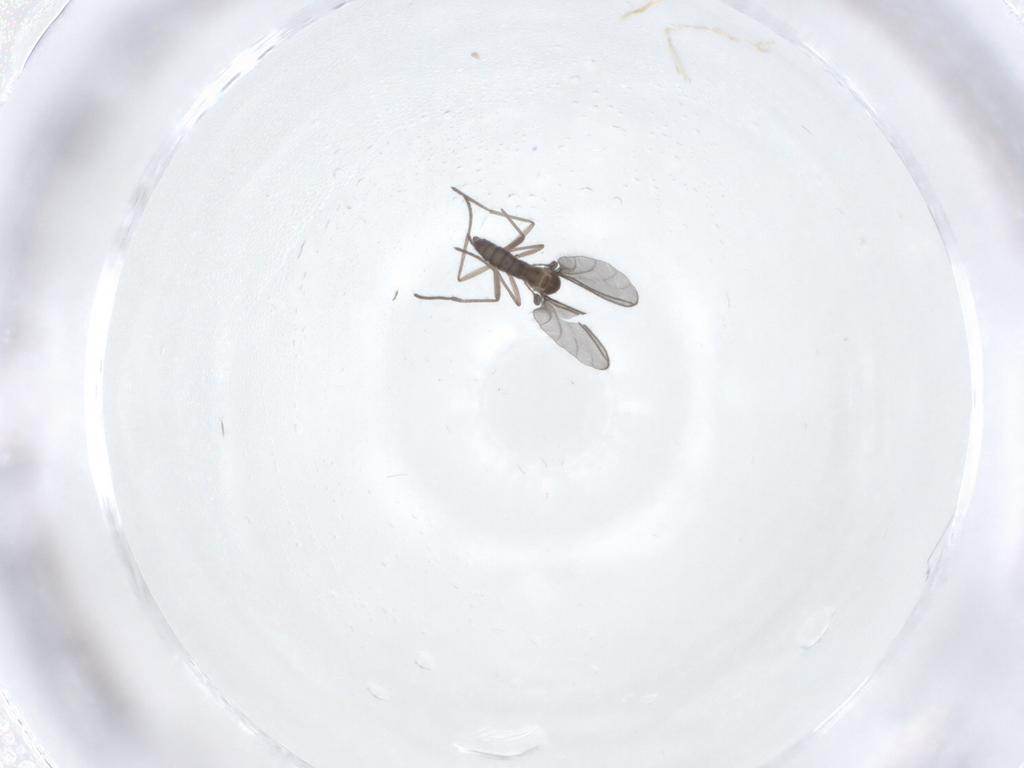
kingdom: Animalia
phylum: Arthropoda
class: Insecta
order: Diptera
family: Sciaridae
